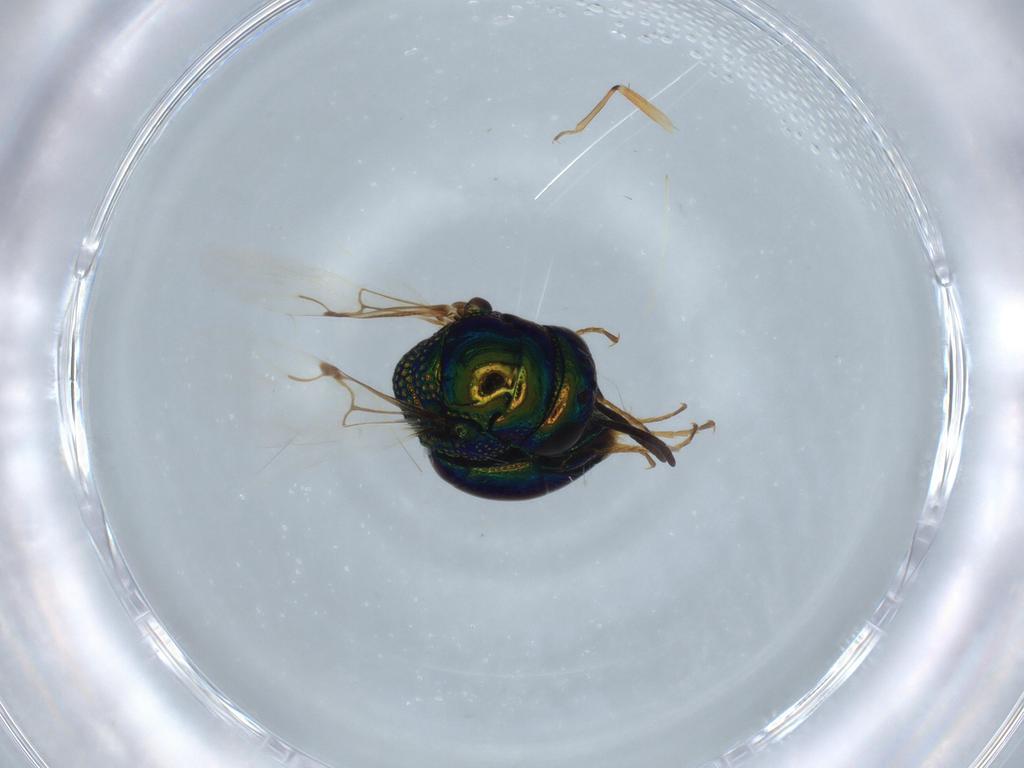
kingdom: Animalia
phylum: Arthropoda
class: Insecta
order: Hymenoptera
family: Chrysididae
